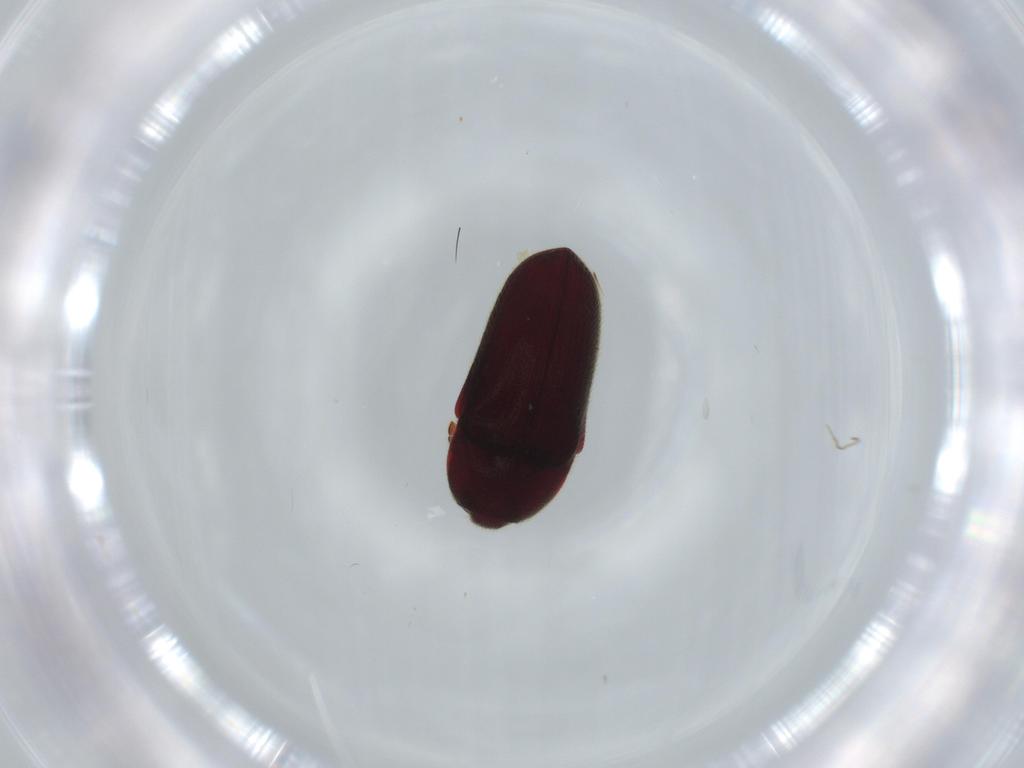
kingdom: Animalia
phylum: Arthropoda
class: Insecta
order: Coleoptera
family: Throscidae
